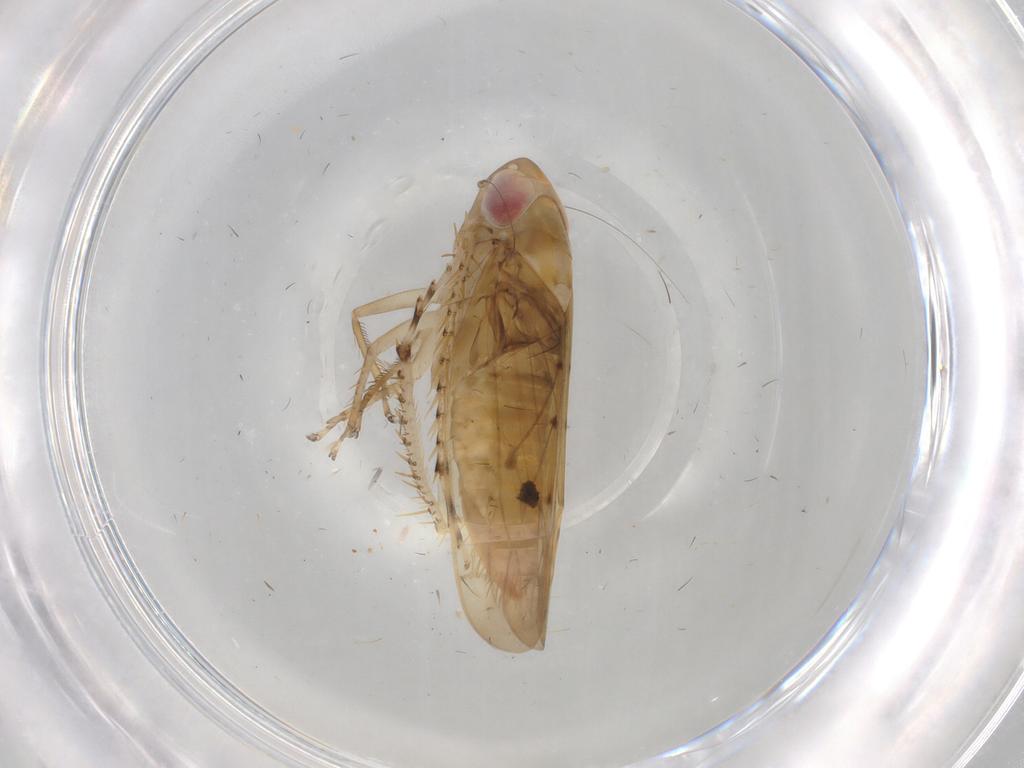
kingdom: Animalia
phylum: Arthropoda
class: Insecta
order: Hemiptera
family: Cicadellidae
